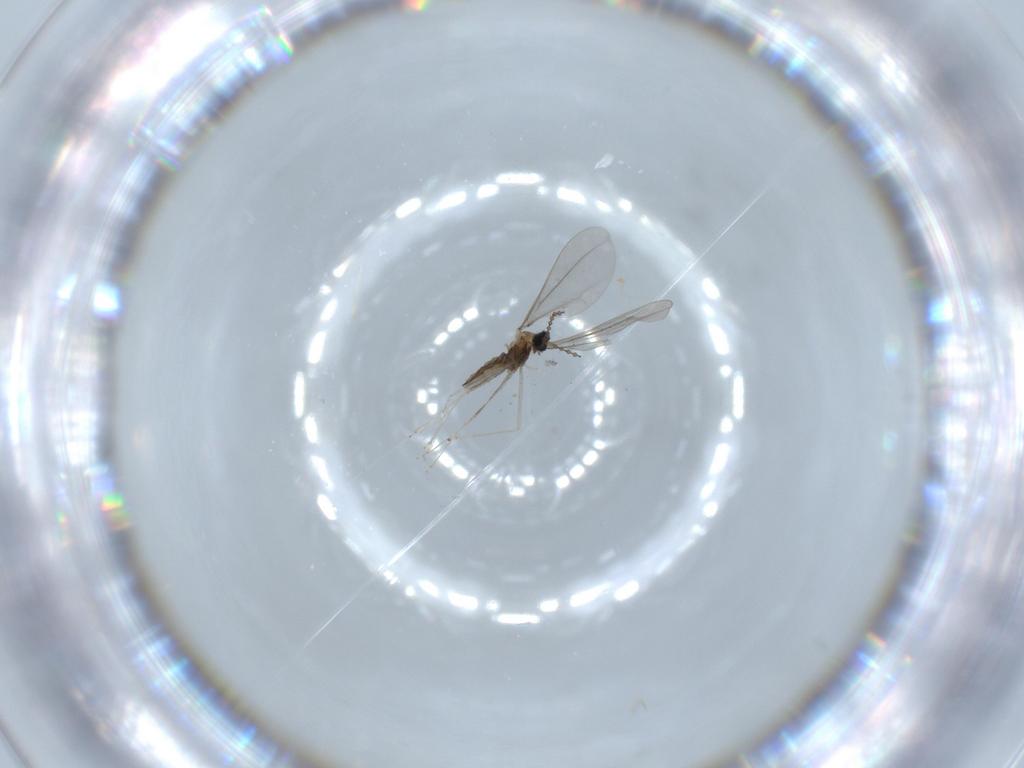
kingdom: Animalia
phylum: Arthropoda
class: Insecta
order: Diptera
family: Cecidomyiidae
